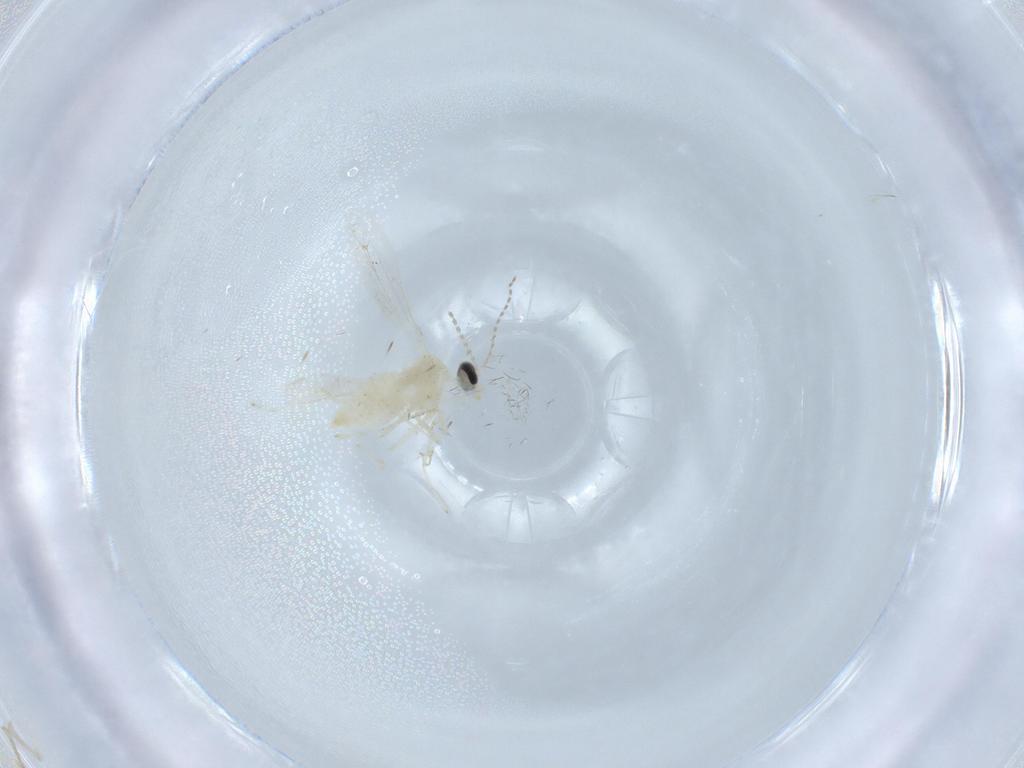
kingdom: Animalia
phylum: Arthropoda
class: Insecta
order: Diptera
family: Cecidomyiidae
